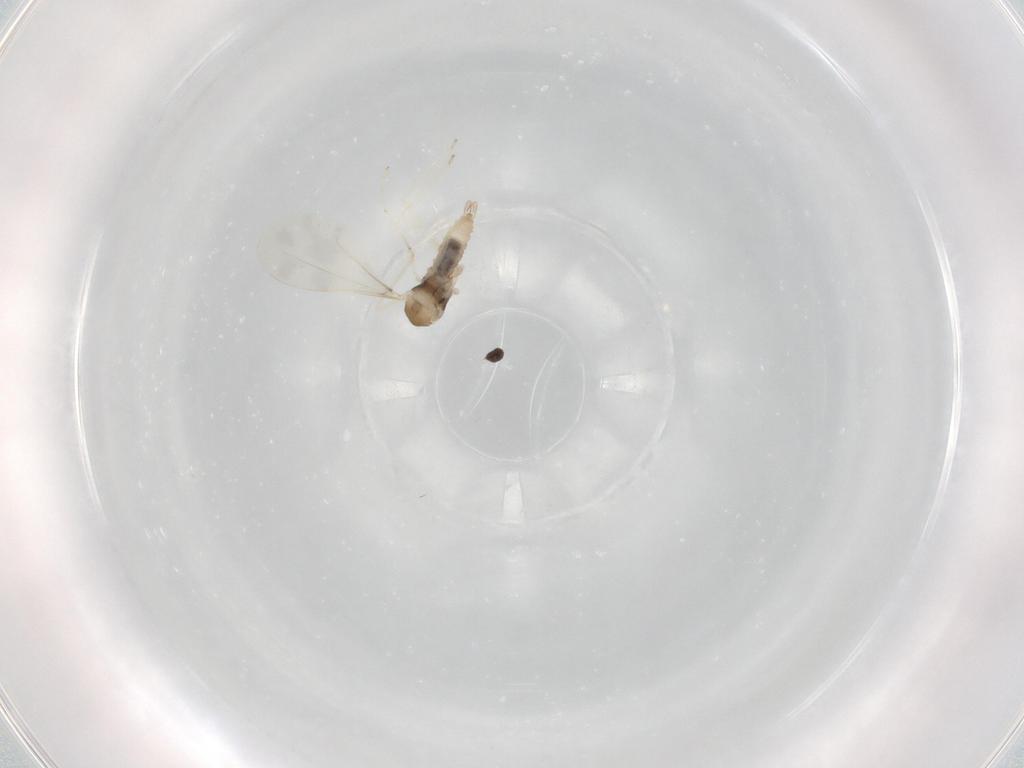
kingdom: Animalia
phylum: Arthropoda
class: Insecta
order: Diptera
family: Cecidomyiidae
